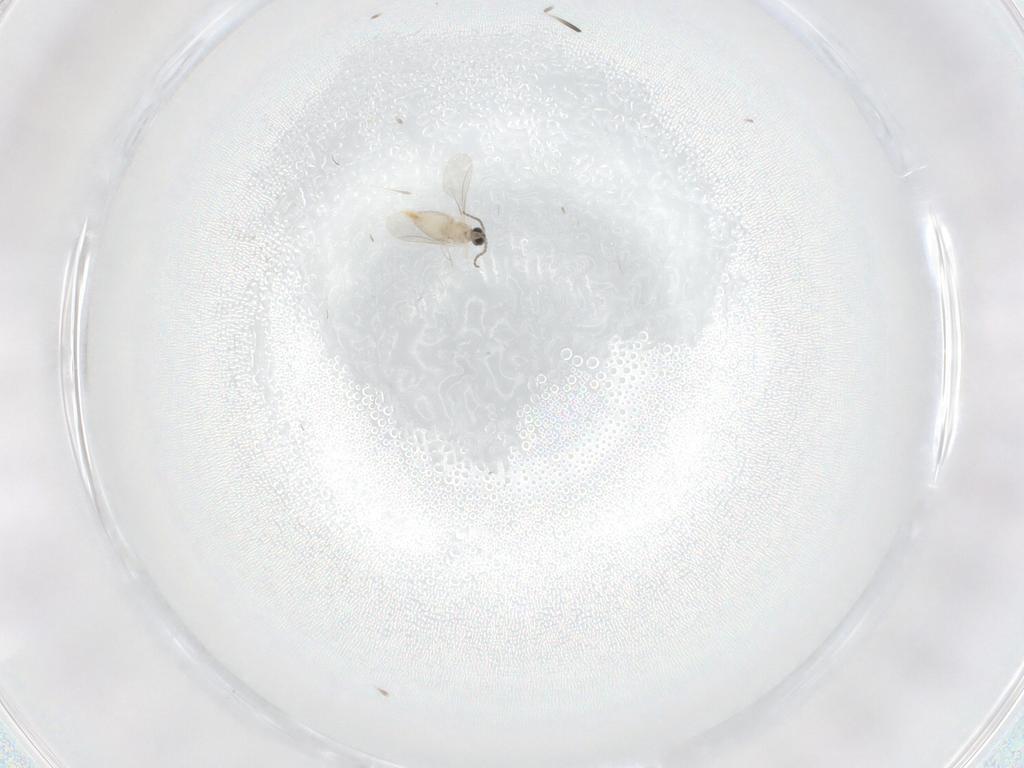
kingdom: Animalia
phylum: Arthropoda
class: Insecta
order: Diptera
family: Cecidomyiidae
